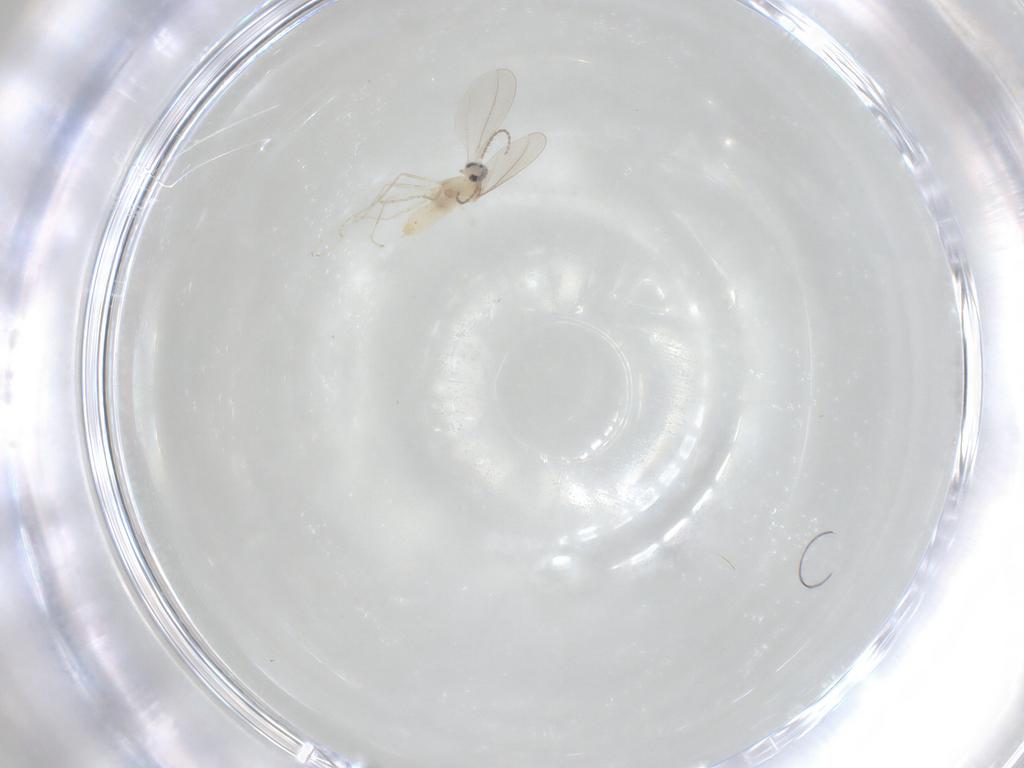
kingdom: Animalia
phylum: Arthropoda
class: Insecta
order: Diptera
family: Cecidomyiidae
